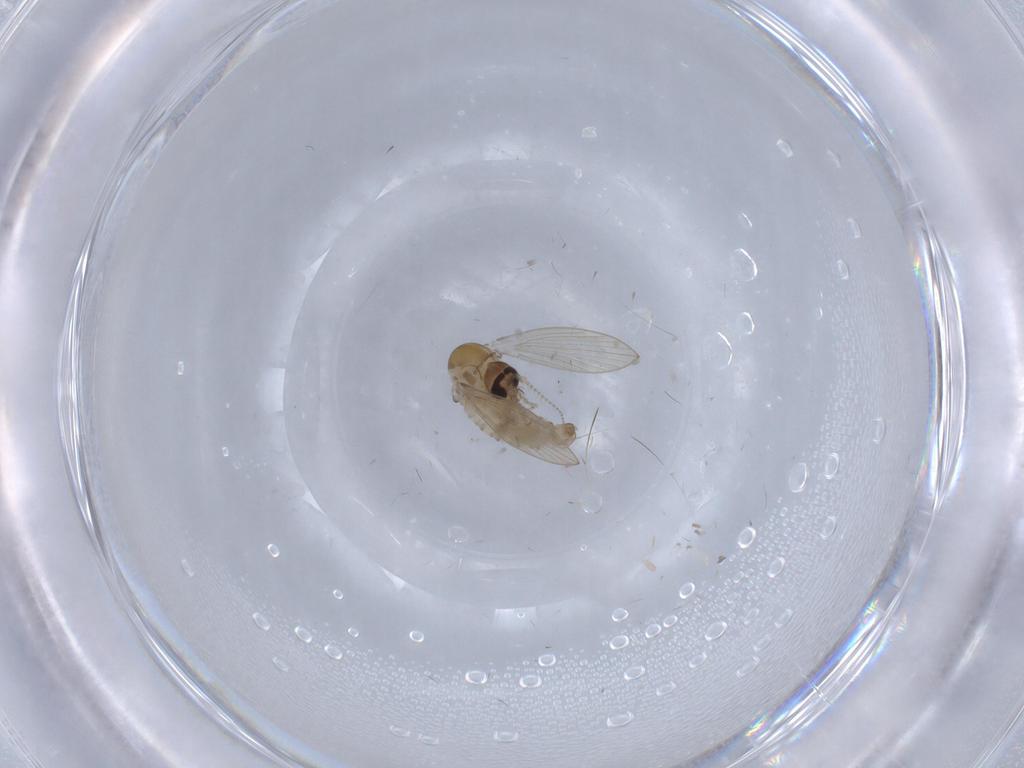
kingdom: Animalia
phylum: Arthropoda
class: Insecta
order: Diptera
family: Psychodidae
